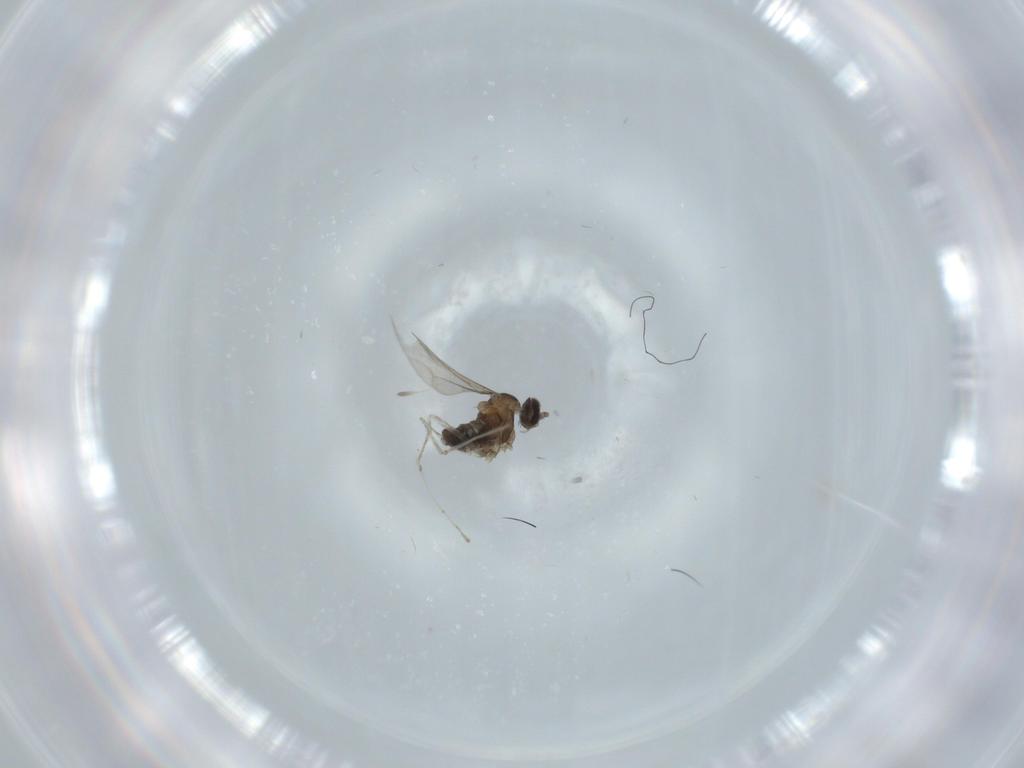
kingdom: Animalia
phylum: Arthropoda
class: Insecta
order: Diptera
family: Cecidomyiidae
